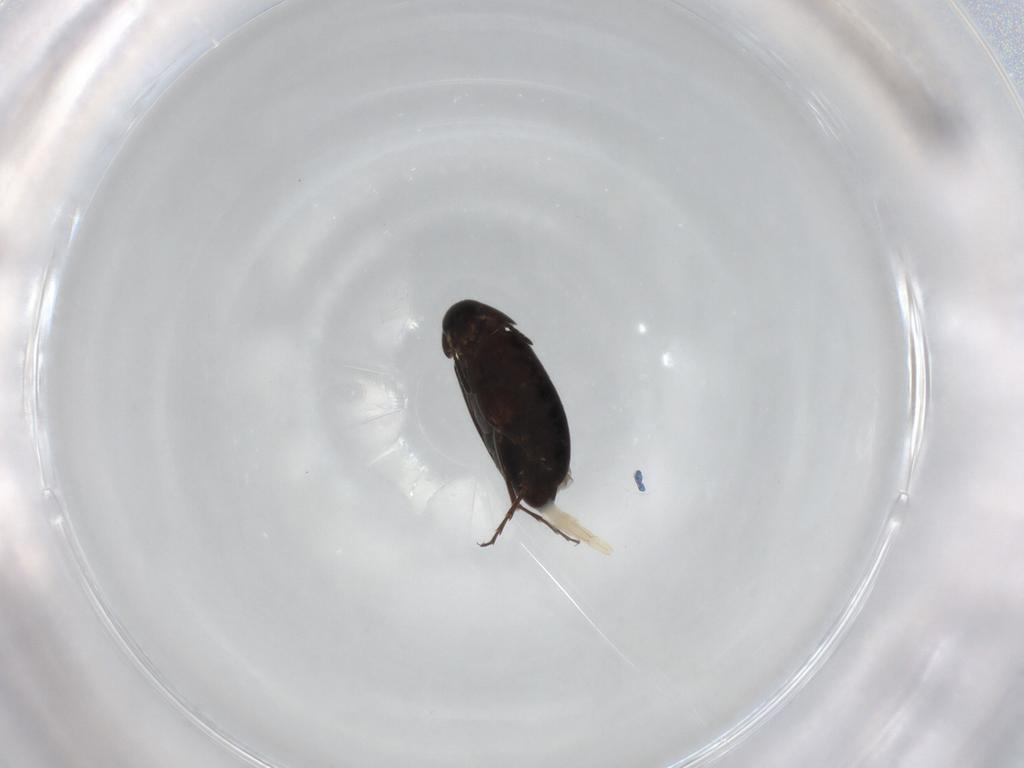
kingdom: Animalia
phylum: Arthropoda
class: Insecta
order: Coleoptera
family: Scraptiidae
